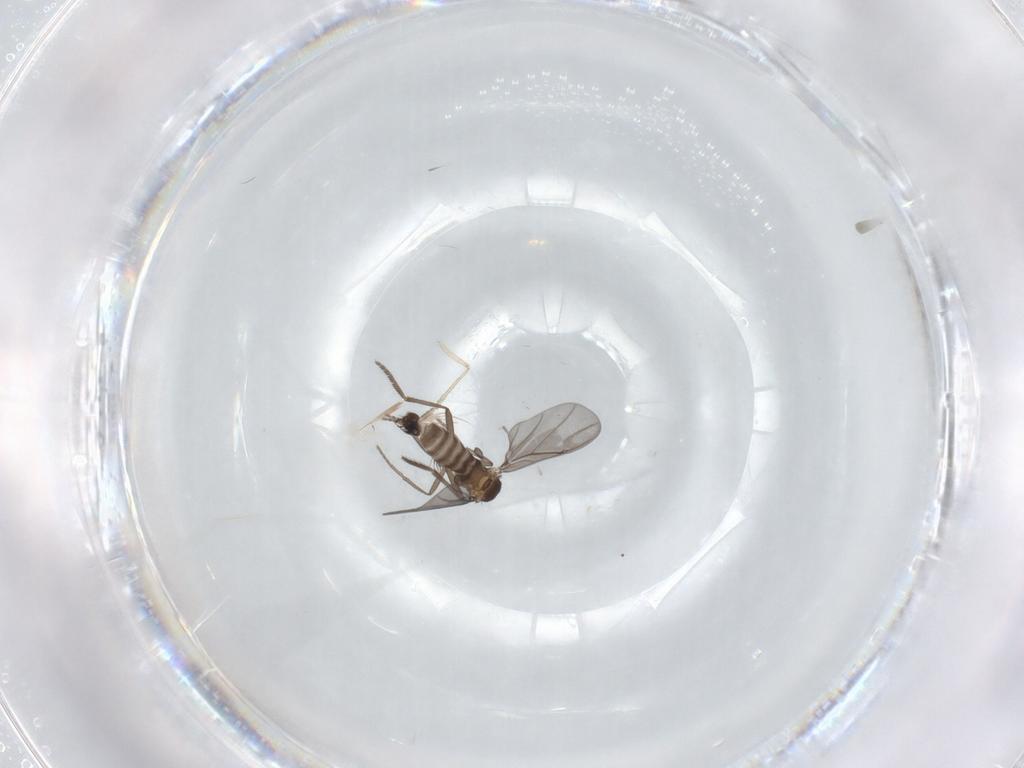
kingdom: Animalia
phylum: Arthropoda
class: Insecta
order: Diptera
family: Phoridae
